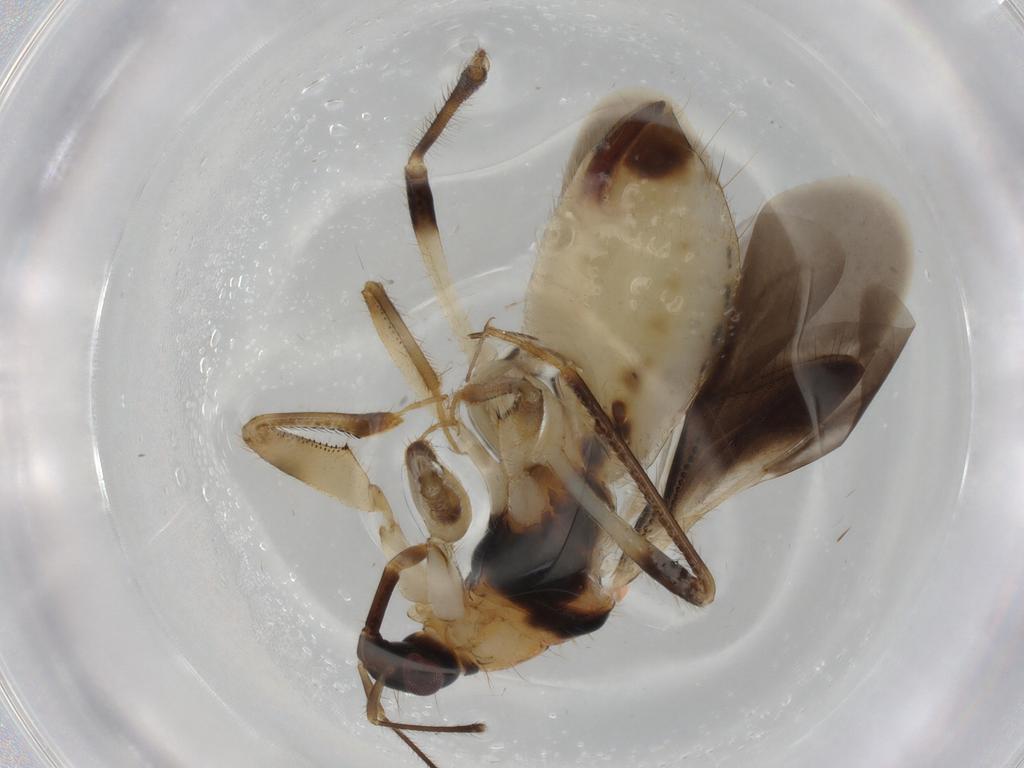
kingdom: Animalia
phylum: Arthropoda
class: Insecta
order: Hemiptera
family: Nabidae
